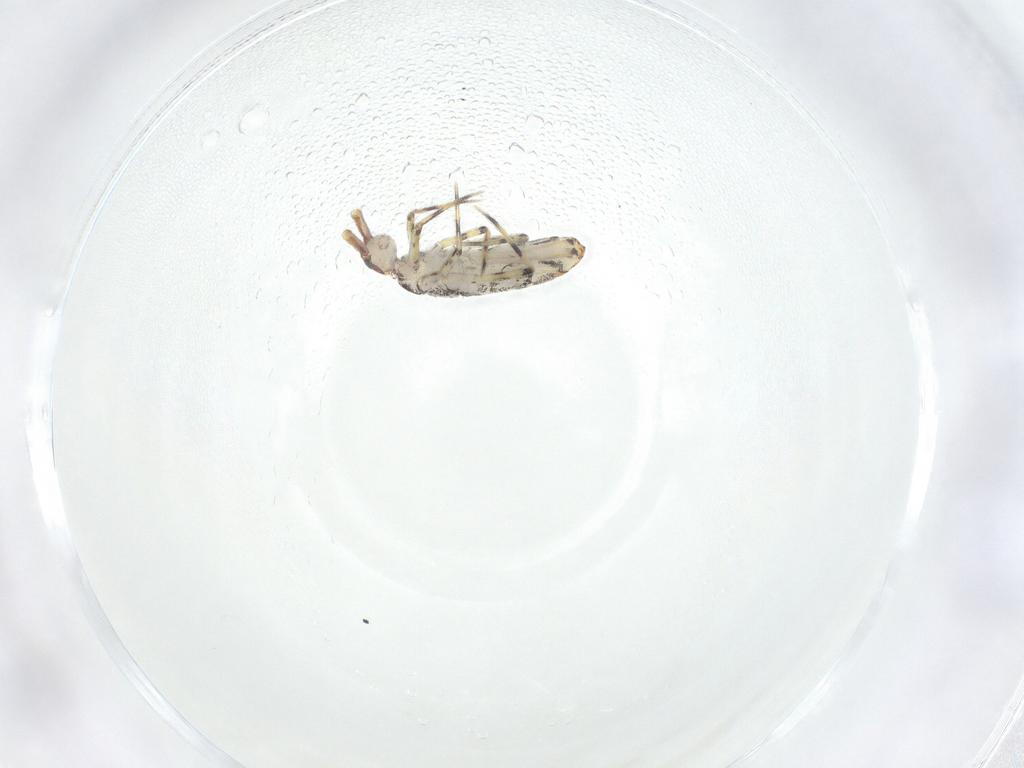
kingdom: Animalia
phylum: Arthropoda
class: Collembola
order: Entomobryomorpha
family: Entomobryidae
